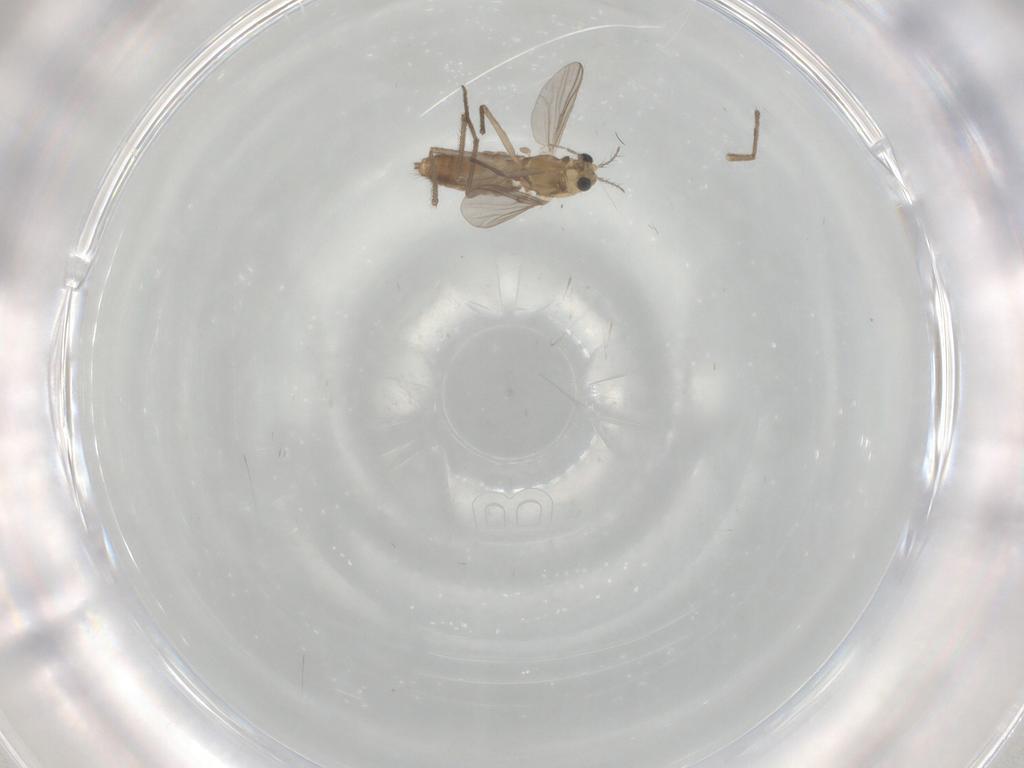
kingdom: Animalia
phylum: Arthropoda
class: Insecta
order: Diptera
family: Chironomidae
